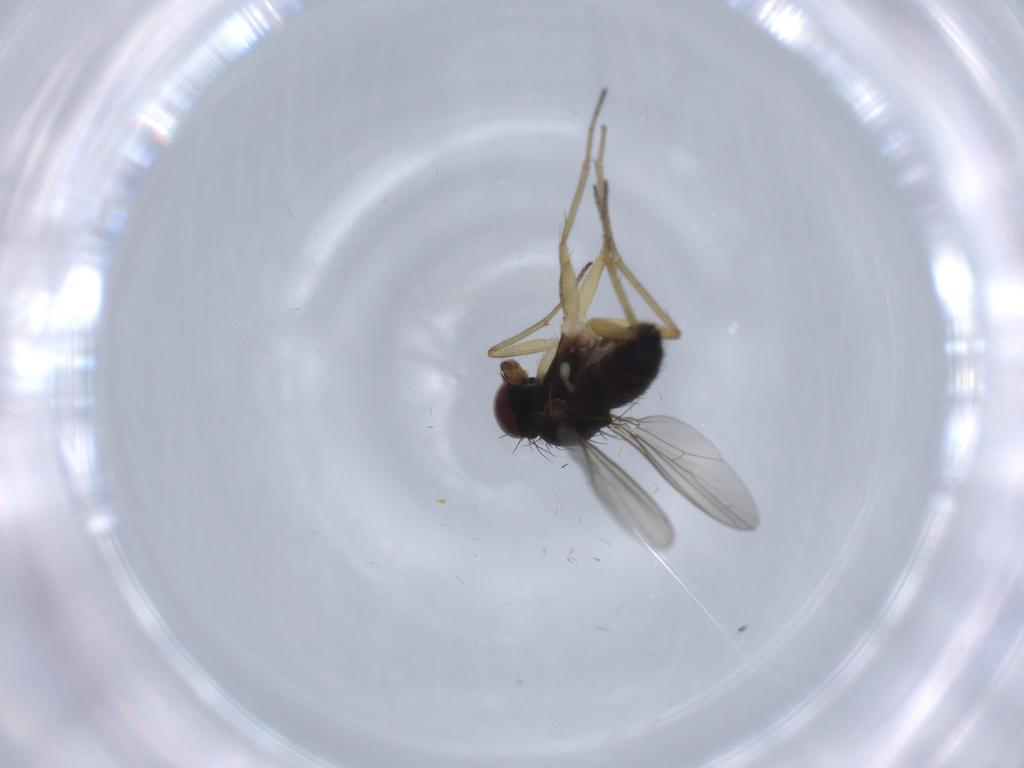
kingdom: Animalia
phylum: Arthropoda
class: Insecta
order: Diptera
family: Dolichopodidae
